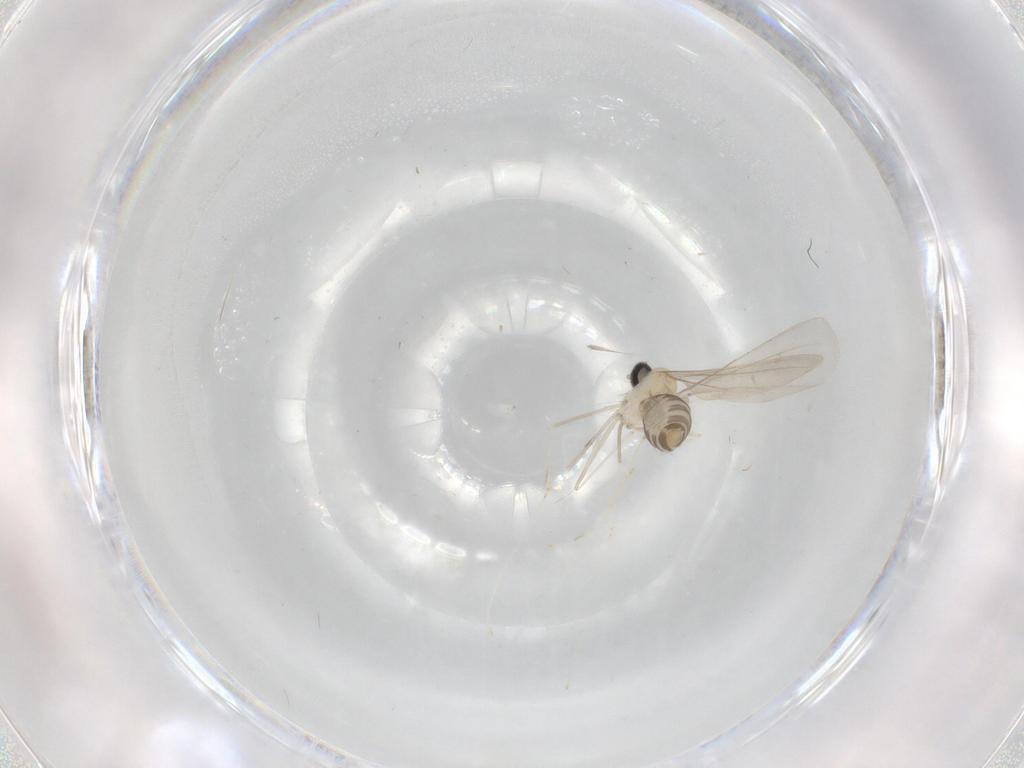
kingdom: Animalia
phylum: Arthropoda
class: Insecta
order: Diptera
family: Cecidomyiidae
